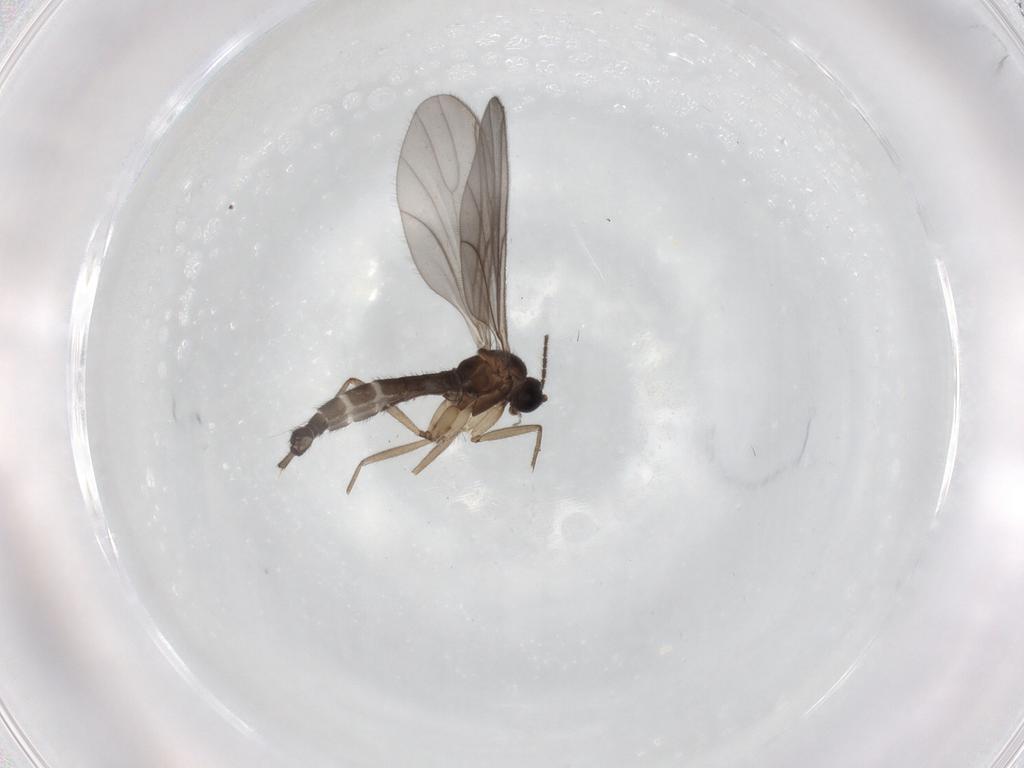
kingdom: Animalia
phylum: Arthropoda
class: Insecta
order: Diptera
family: Sciaridae
